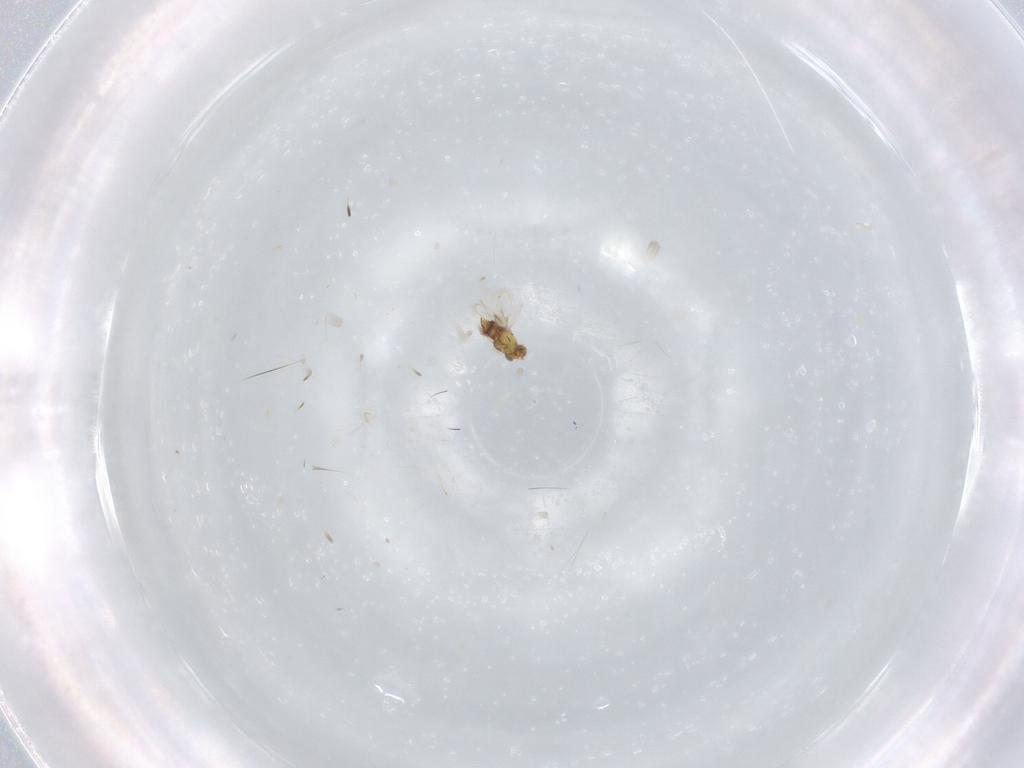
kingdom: Animalia
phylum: Arthropoda
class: Insecta
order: Hymenoptera
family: Aphelinidae
